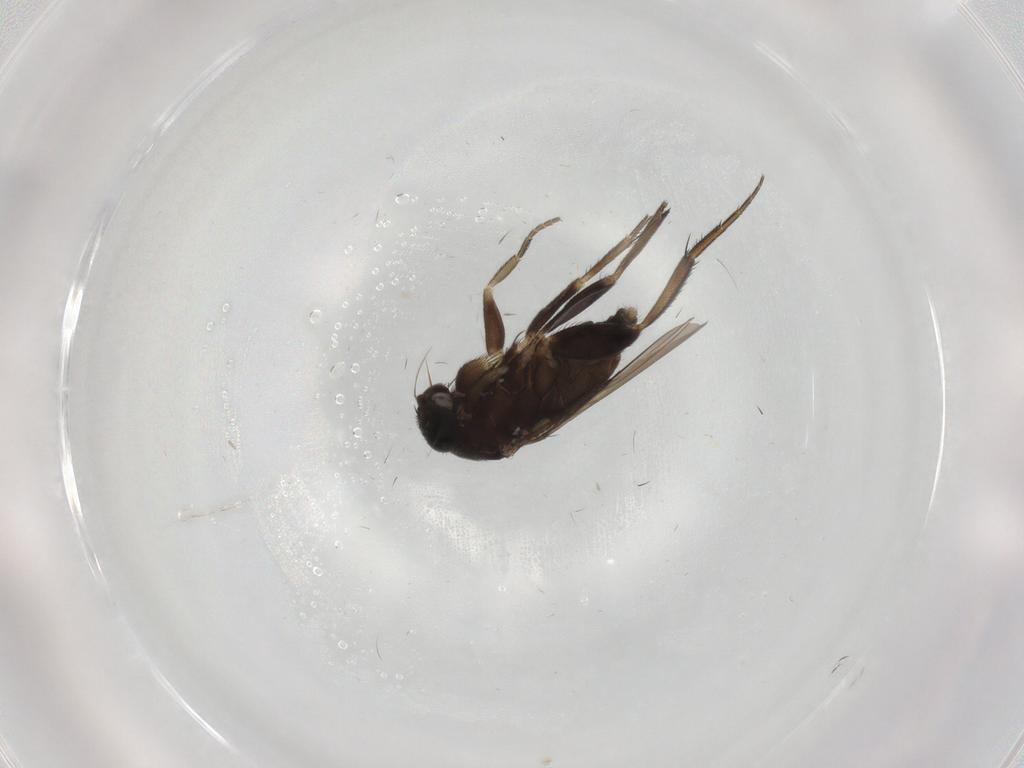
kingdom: Animalia
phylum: Arthropoda
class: Insecta
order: Diptera
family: Phoridae
